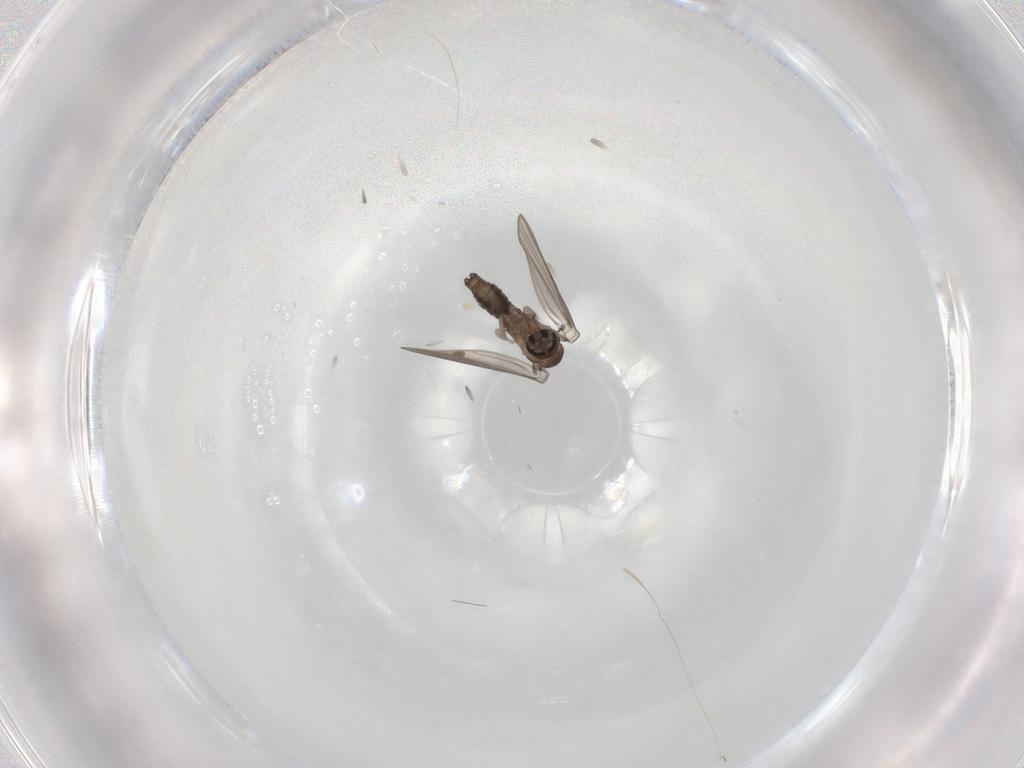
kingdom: Animalia
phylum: Arthropoda
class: Insecta
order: Diptera
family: Psychodidae
